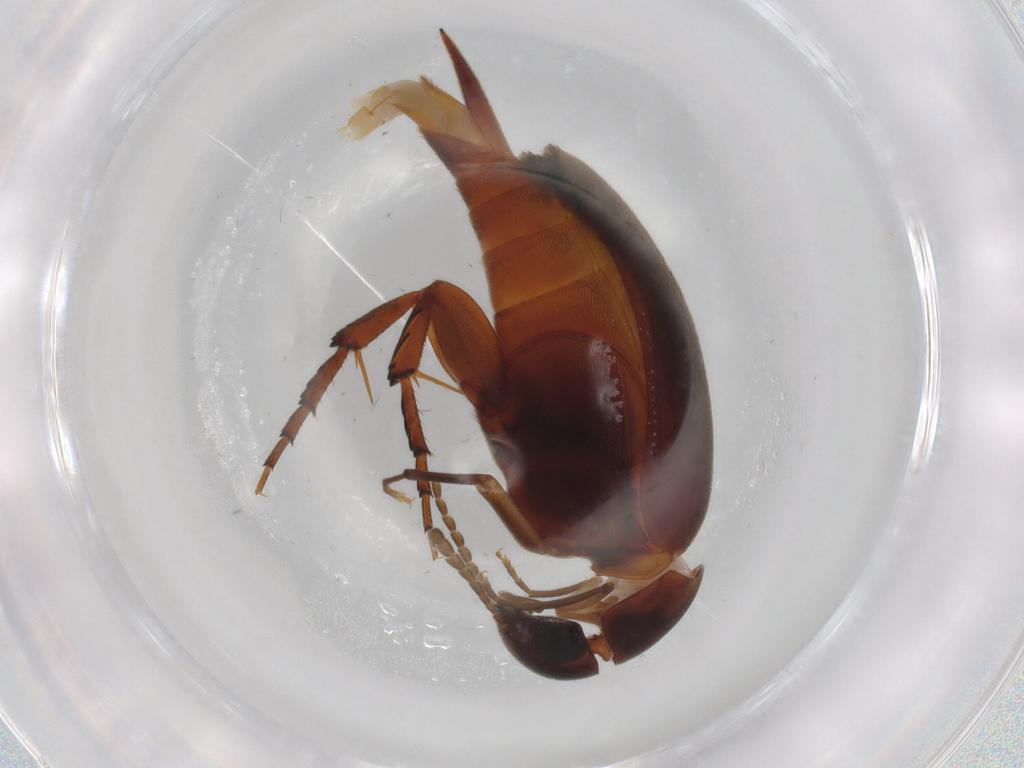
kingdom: Animalia
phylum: Arthropoda
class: Insecta
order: Coleoptera
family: Mordellidae
